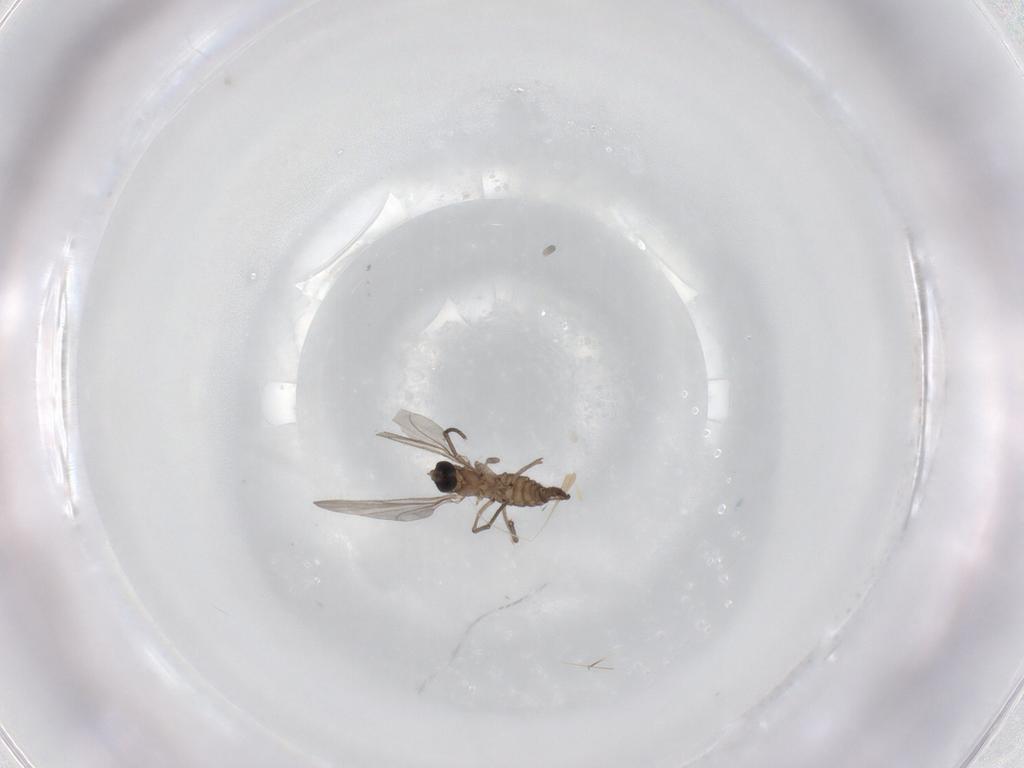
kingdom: Animalia
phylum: Arthropoda
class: Insecta
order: Diptera
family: Sciaridae
